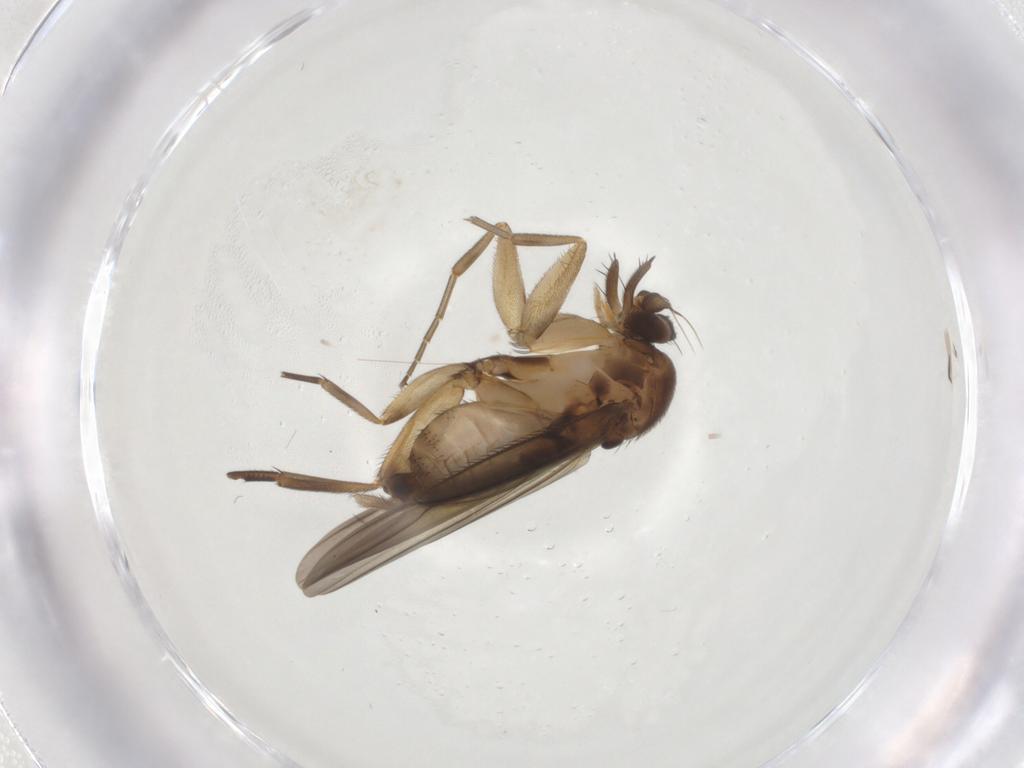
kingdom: Animalia
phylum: Arthropoda
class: Insecta
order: Diptera
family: Phoridae
